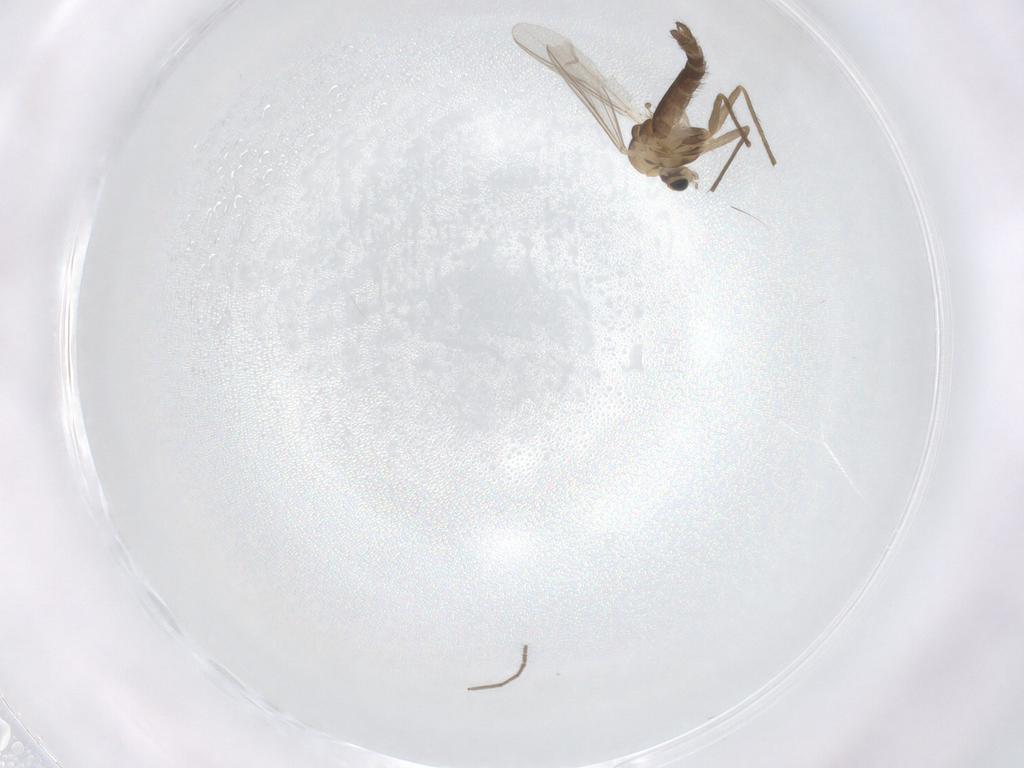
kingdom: Animalia
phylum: Arthropoda
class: Insecta
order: Diptera
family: Chironomidae
